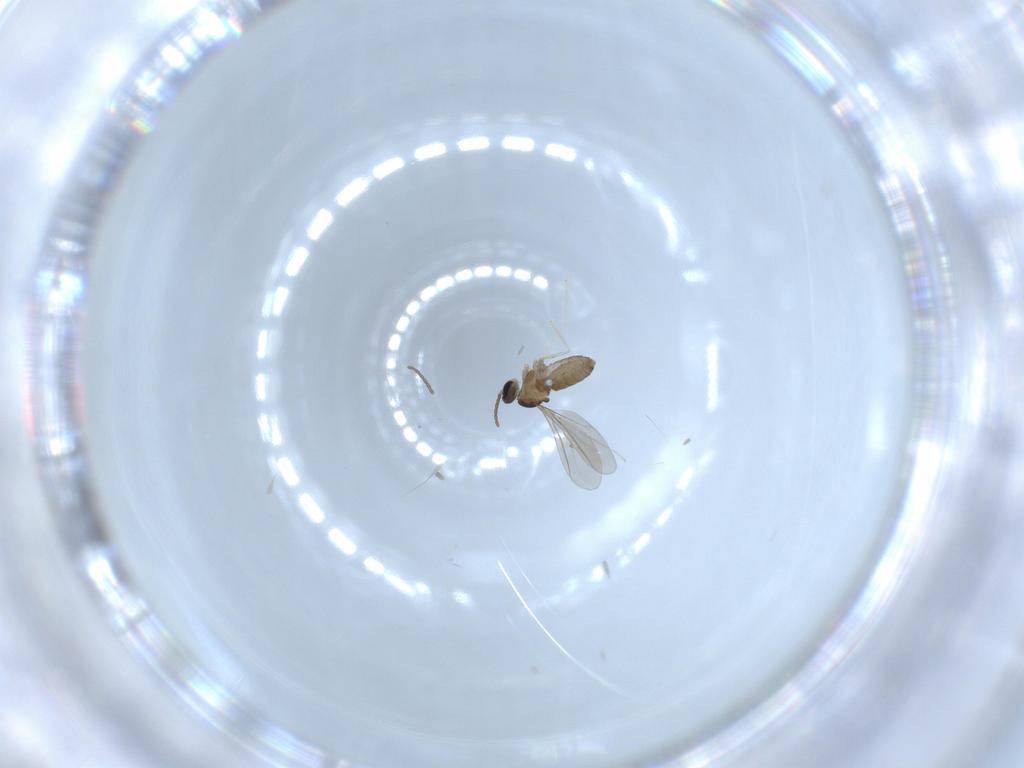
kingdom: Animalia
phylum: Arthropoda
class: Insecta
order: Diptera
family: Cecidomyiidae
